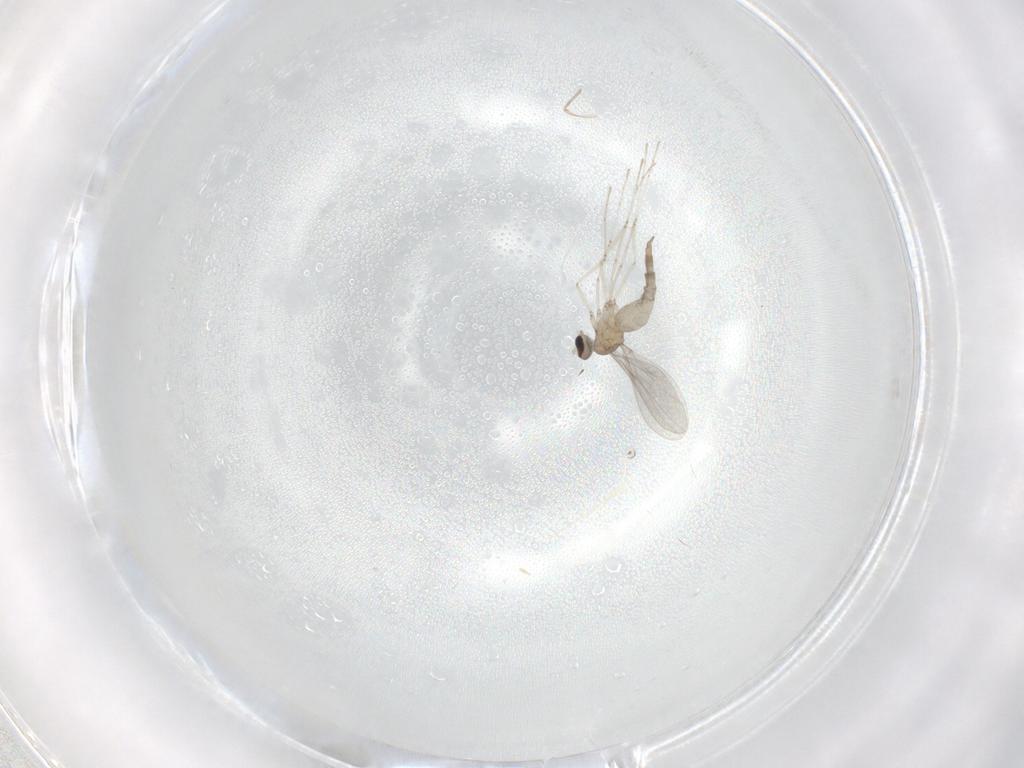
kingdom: Animalia
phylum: Arthropoda
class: Insecta
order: Diptera
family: Cecidomyiidae
